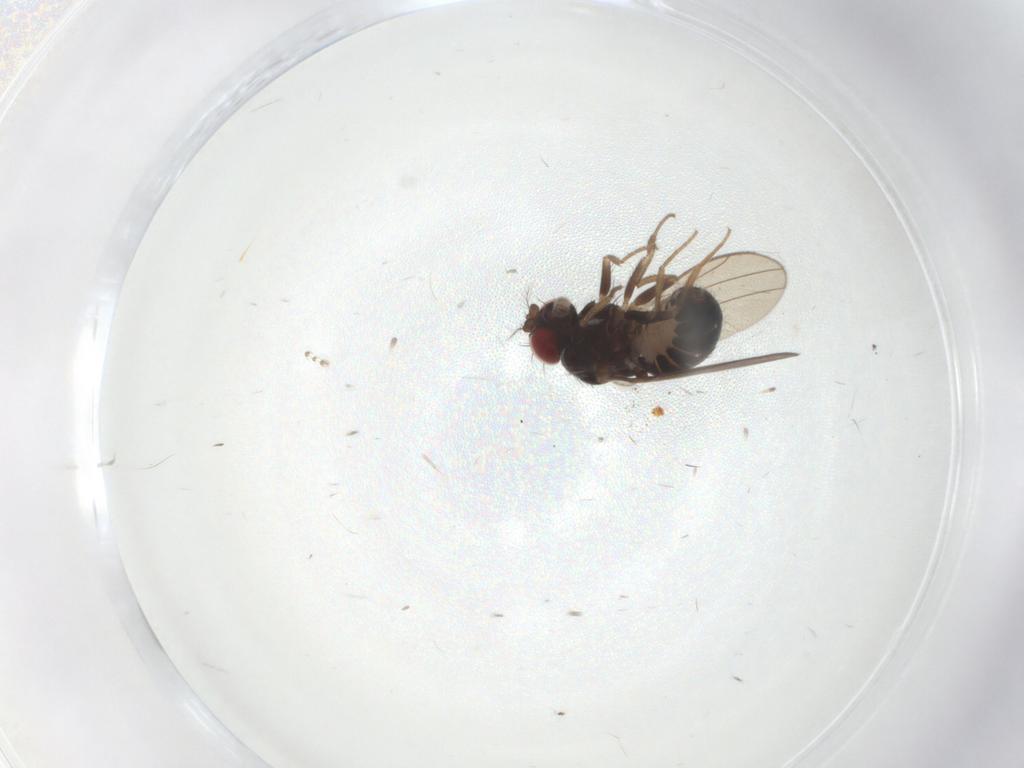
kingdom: Animalia
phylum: Arthropoda
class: Insecta
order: Diptera
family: Drosophilidae
